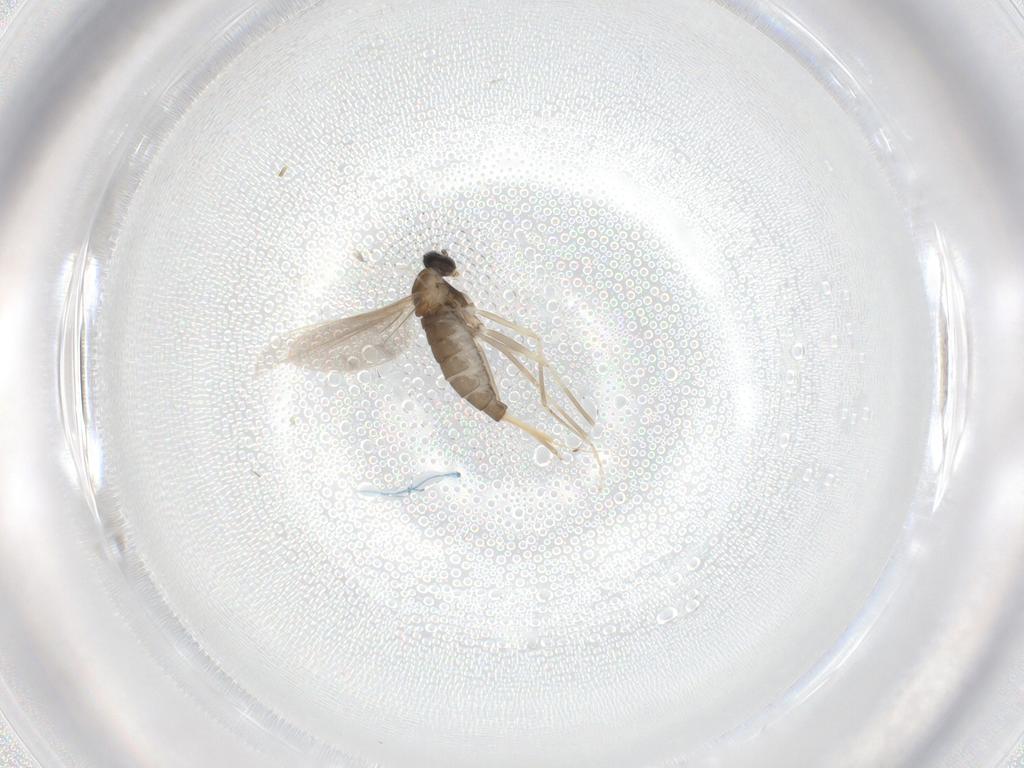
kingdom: Animalia
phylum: Arthropoda
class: Insecta
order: Diptera
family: Cecidomyiidae
